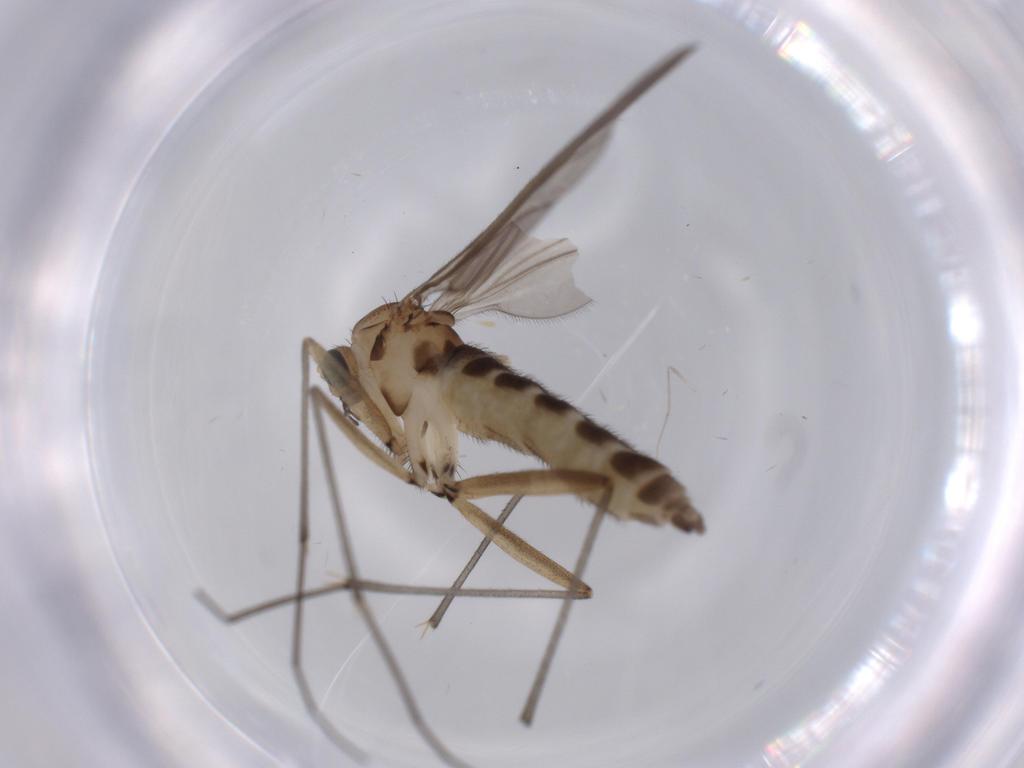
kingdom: Animalia
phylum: Arthropoda
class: Insecta
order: Diptera
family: Sciaridae
